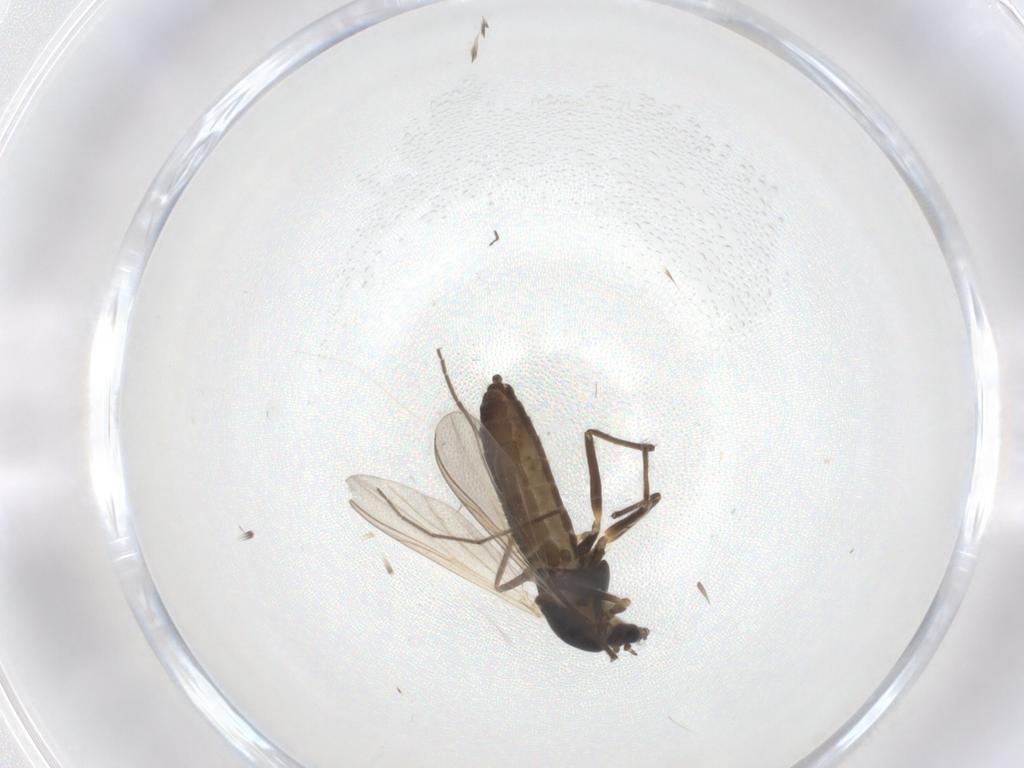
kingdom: Animalia
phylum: Arthropoda
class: Insecta
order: Diptera
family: Chironomidae
